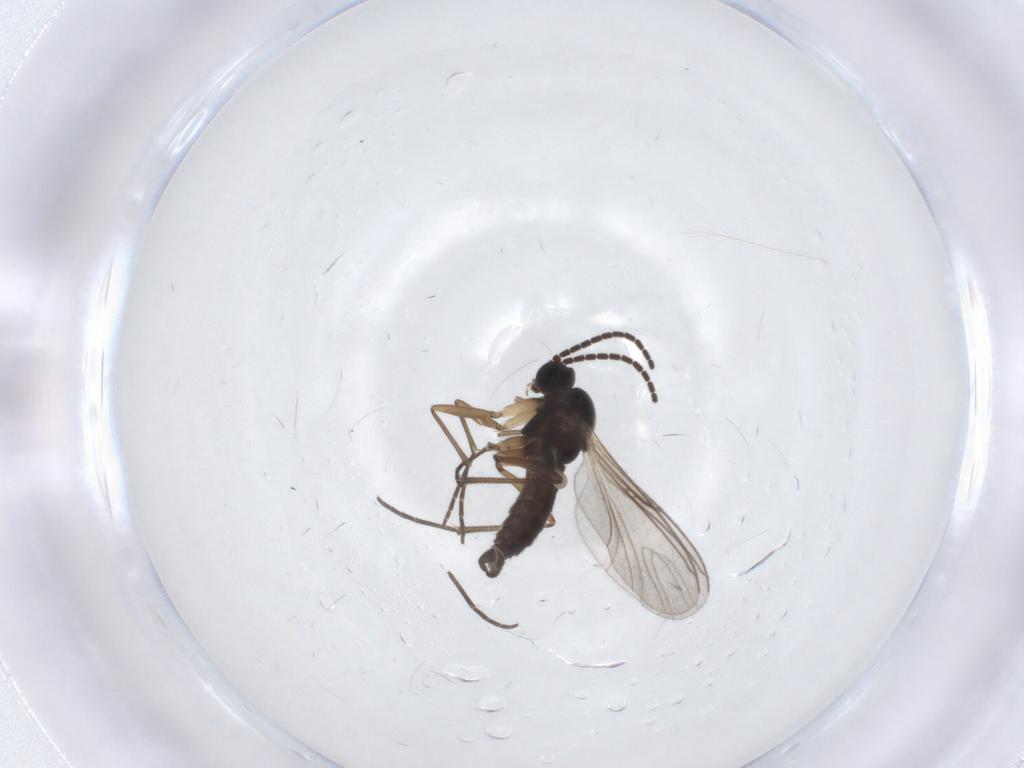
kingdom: Animalia
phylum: Arthropoda
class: Insecta
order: Diptera
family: Sciaridae
